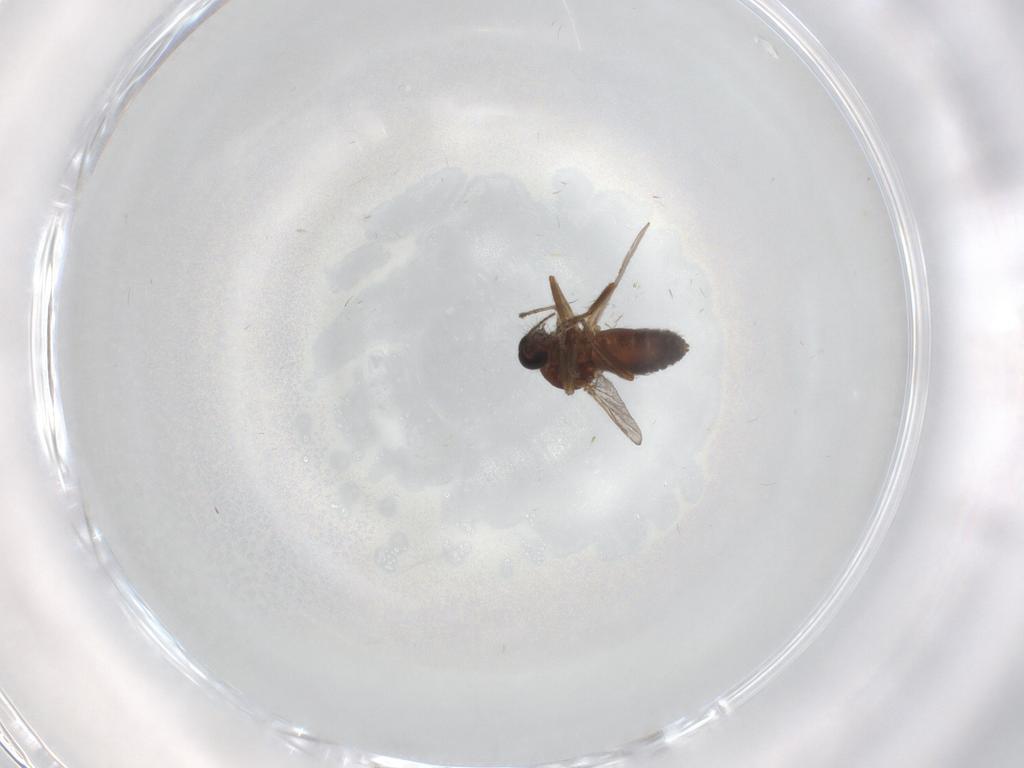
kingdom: Animalia
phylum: Arthropoda
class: Insecta
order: Diptera
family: Ceratopogonidae
